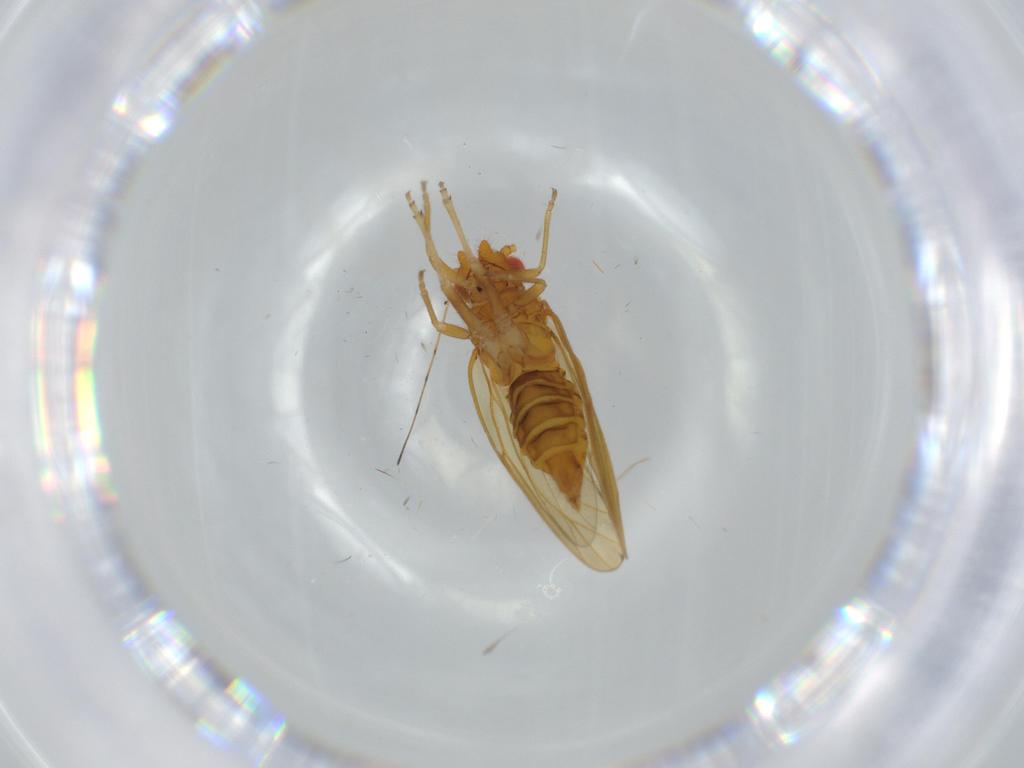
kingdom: Animalia
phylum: Arthropoda
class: Insecta
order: Diptera
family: Cecidomyiidae
